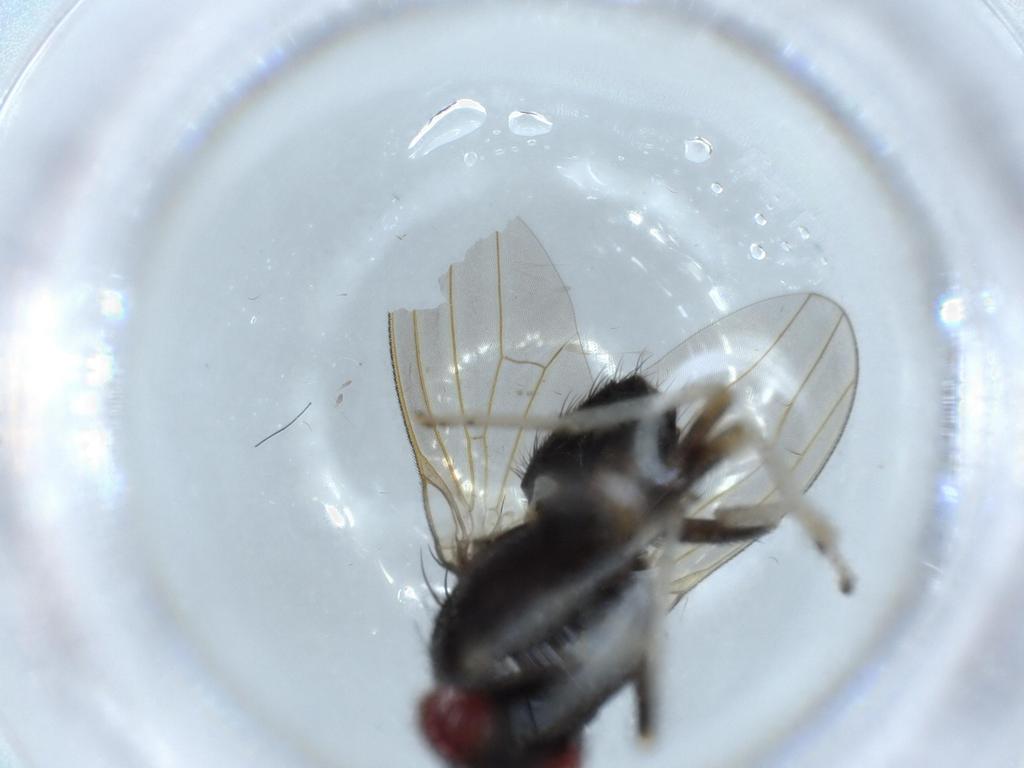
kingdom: Animalia
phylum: Arthropoda
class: Insecta
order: Diptera
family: Lauxaniidae
